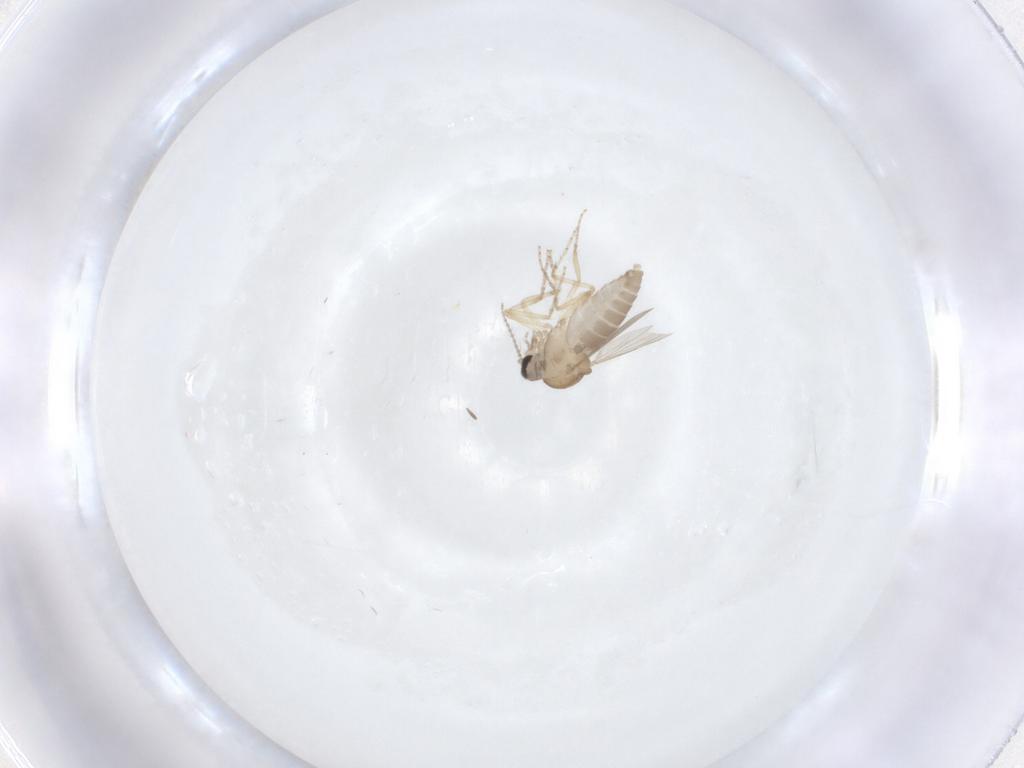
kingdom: Animalia
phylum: Arthropoda
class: Insecta
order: Diptera
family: Ceratopogonidae
